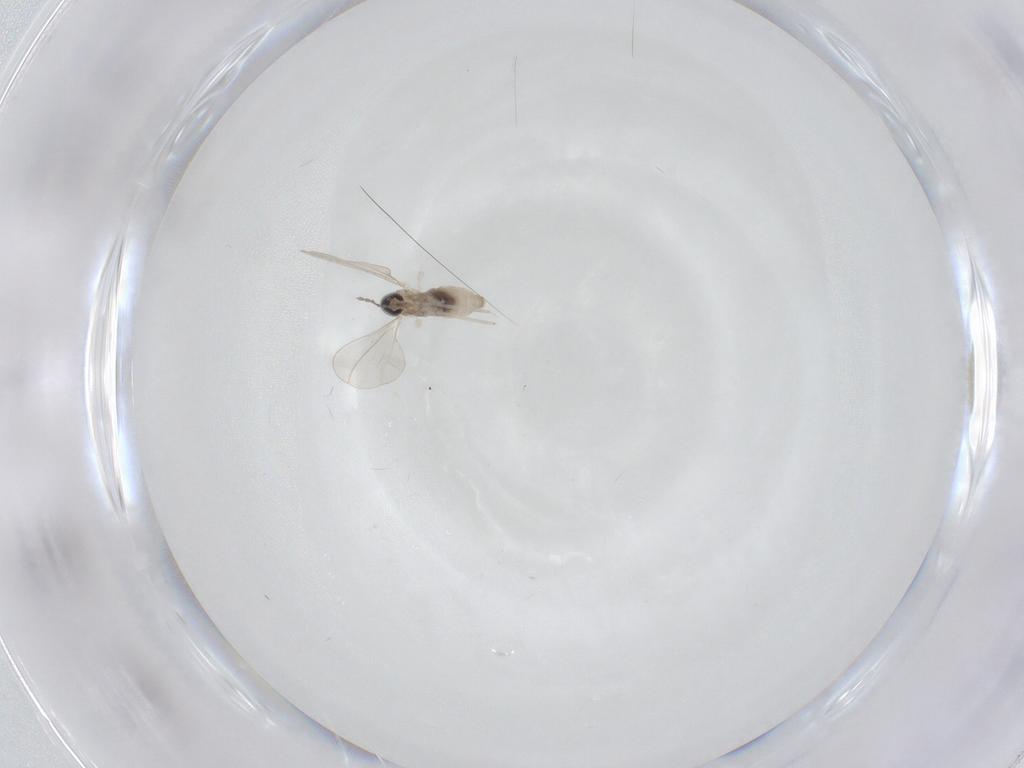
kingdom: Animalia
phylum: Arthropoda
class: Insecta
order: Diptera
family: Cecidomyiidae
